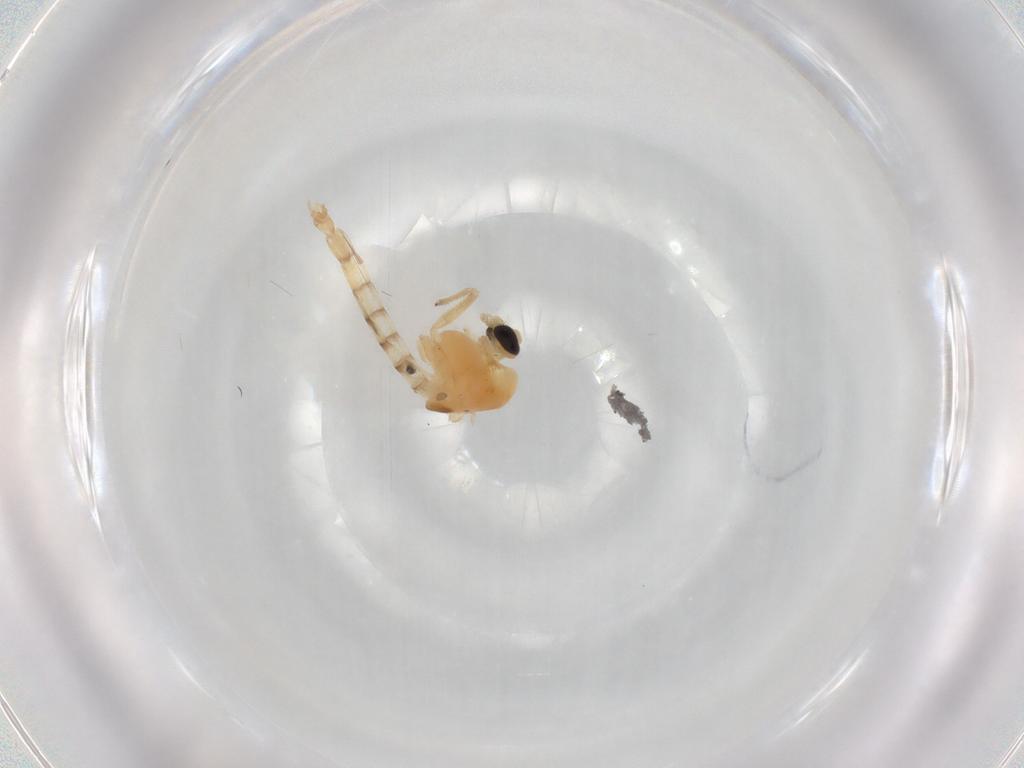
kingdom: Animalia
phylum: Arthropoda
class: Insecta
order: Diptera
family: Chironomidae
